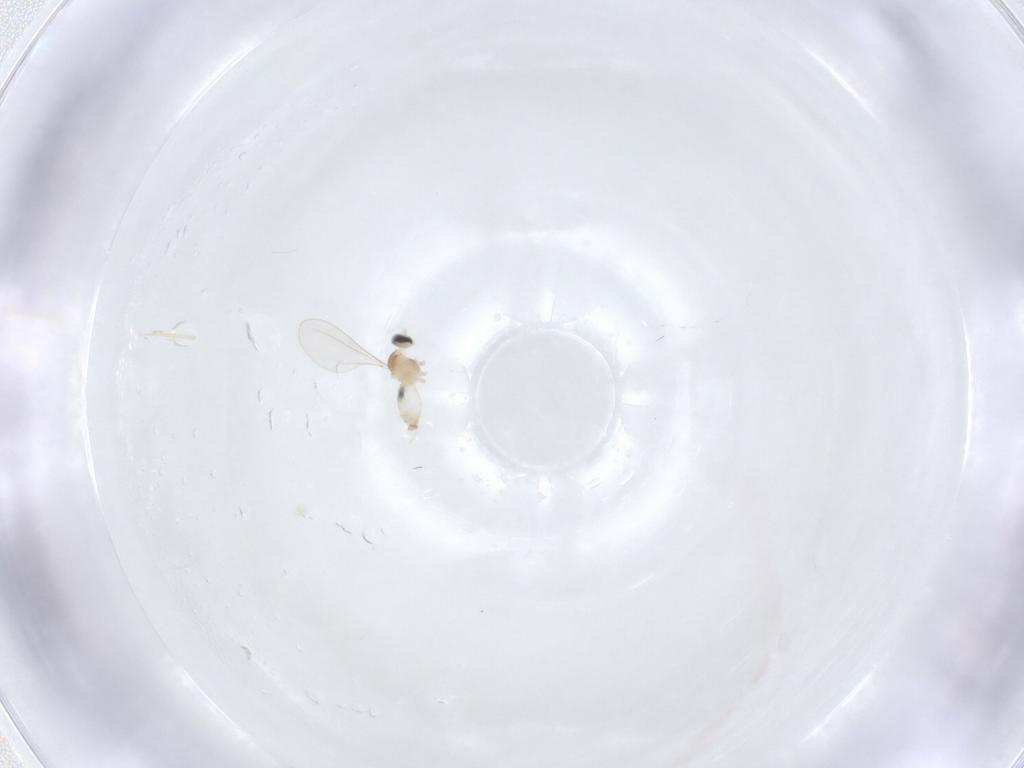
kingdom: Animalia
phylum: Arthropoda
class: Insecta
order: Diptera
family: Cecidomyiidae
